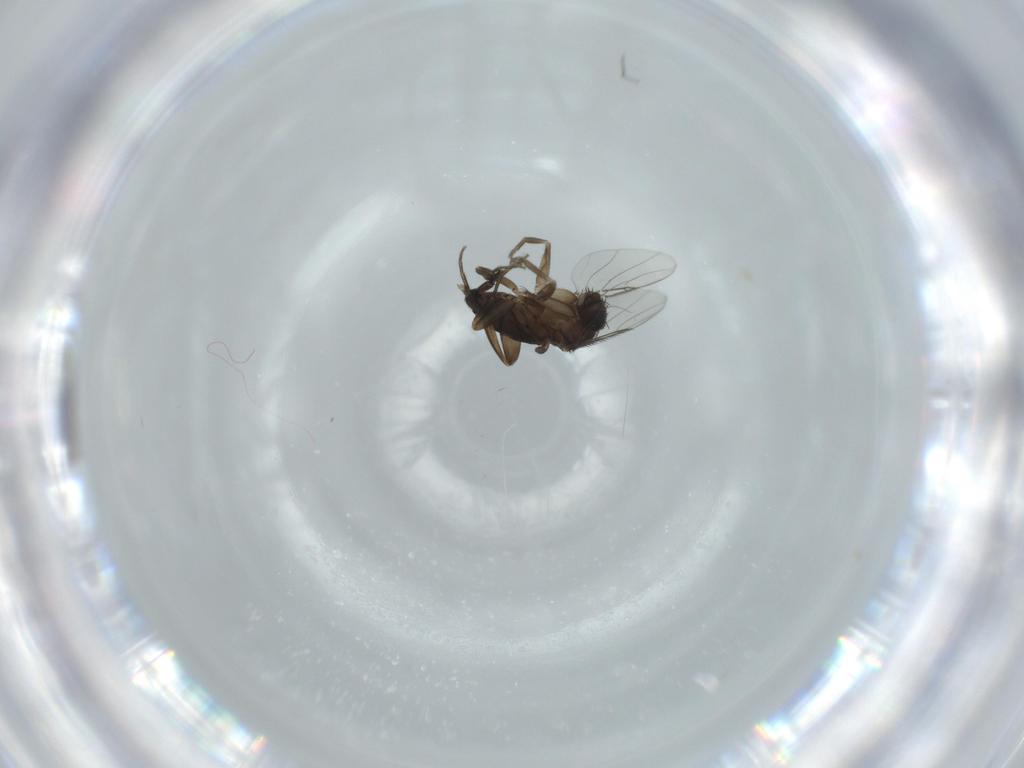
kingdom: Animalia
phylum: Arthropoda
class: Insecta
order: Diptera
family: Phoridae
